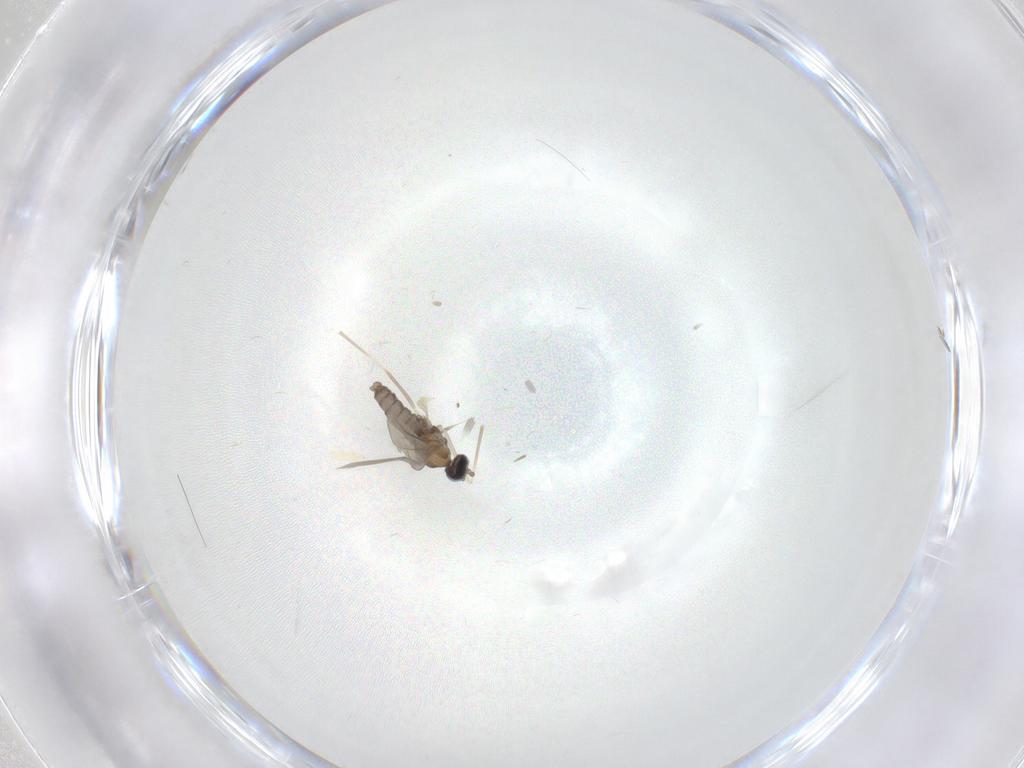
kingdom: Animalia
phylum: Arthropoda
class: Insecta
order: Diptera
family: Cecidomyiidae
